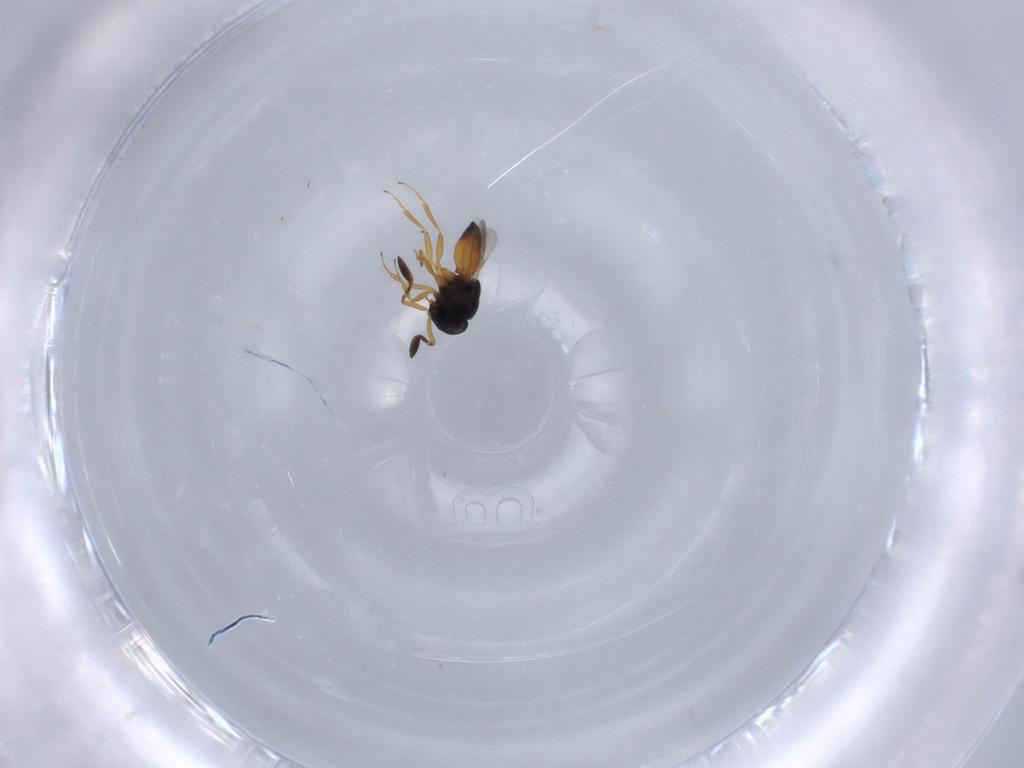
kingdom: Animalia
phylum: Arthropoda
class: Insecta
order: Hymenoptera
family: Scelionidae
